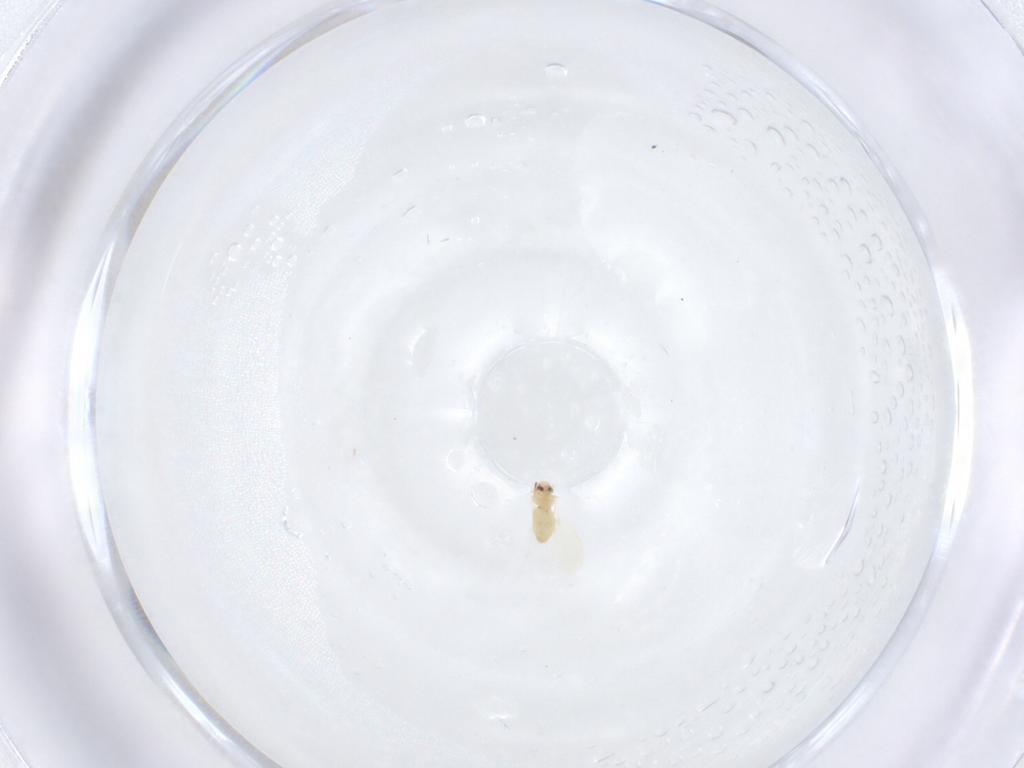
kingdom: Animalia
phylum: Arthropoda
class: Insecta
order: Hemiptera
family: Aleyrodidae
